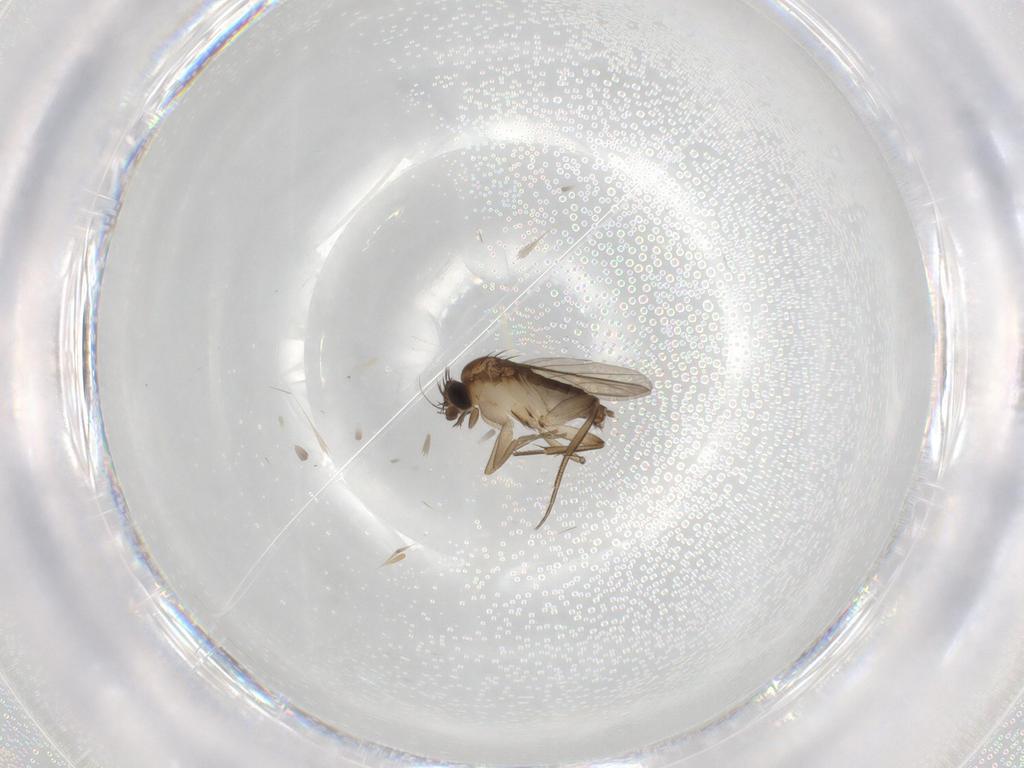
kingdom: Animalia
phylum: Arthropoda
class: Insecta
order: Diptera
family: Phoridae
